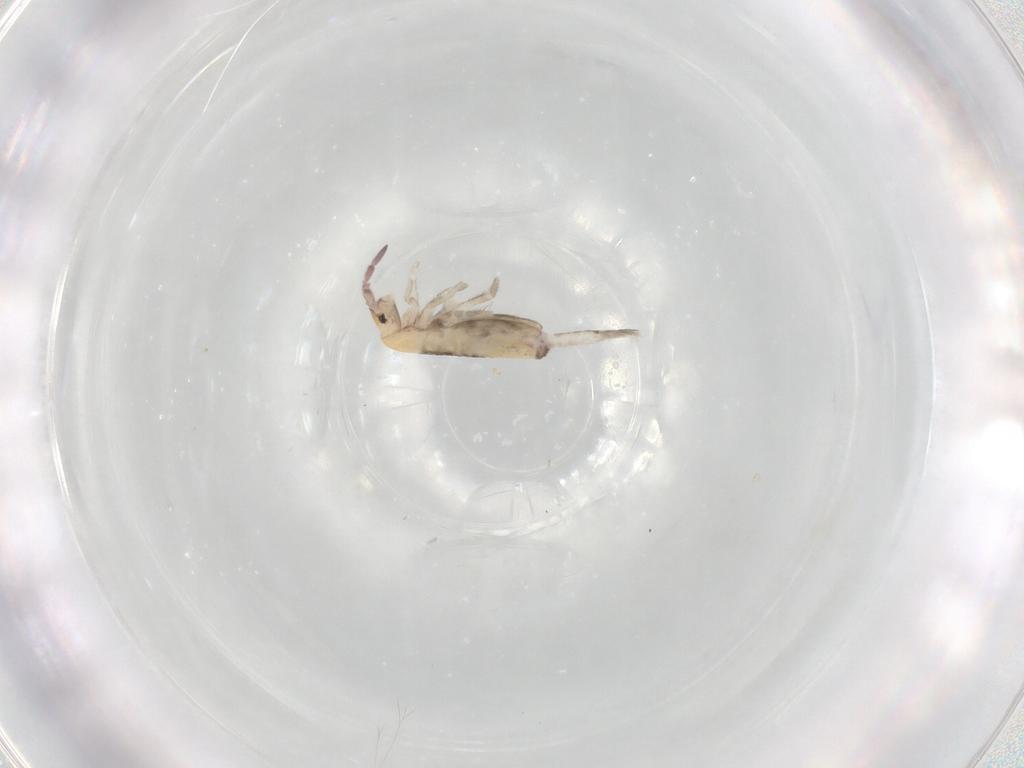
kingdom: Animalia
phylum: Arthropoda
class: Collembola
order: Entomobryomorpha
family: Entomobryidae
